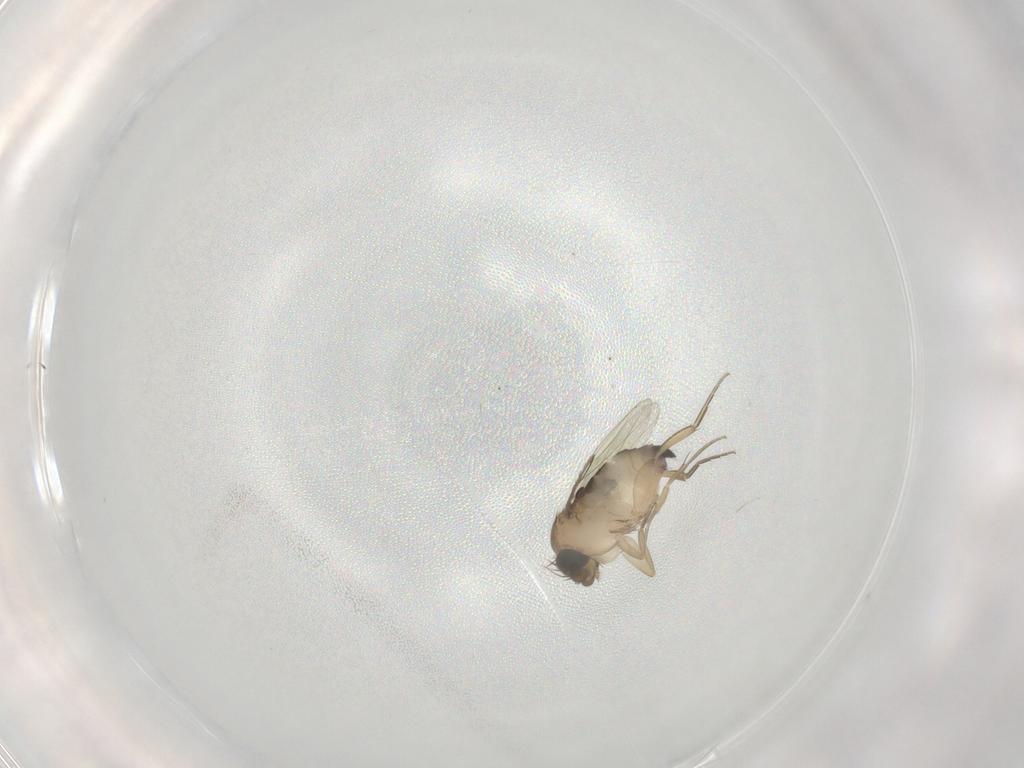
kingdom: Animalia
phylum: Arthropoda
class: Insecta
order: Diptera
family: Phoridae
